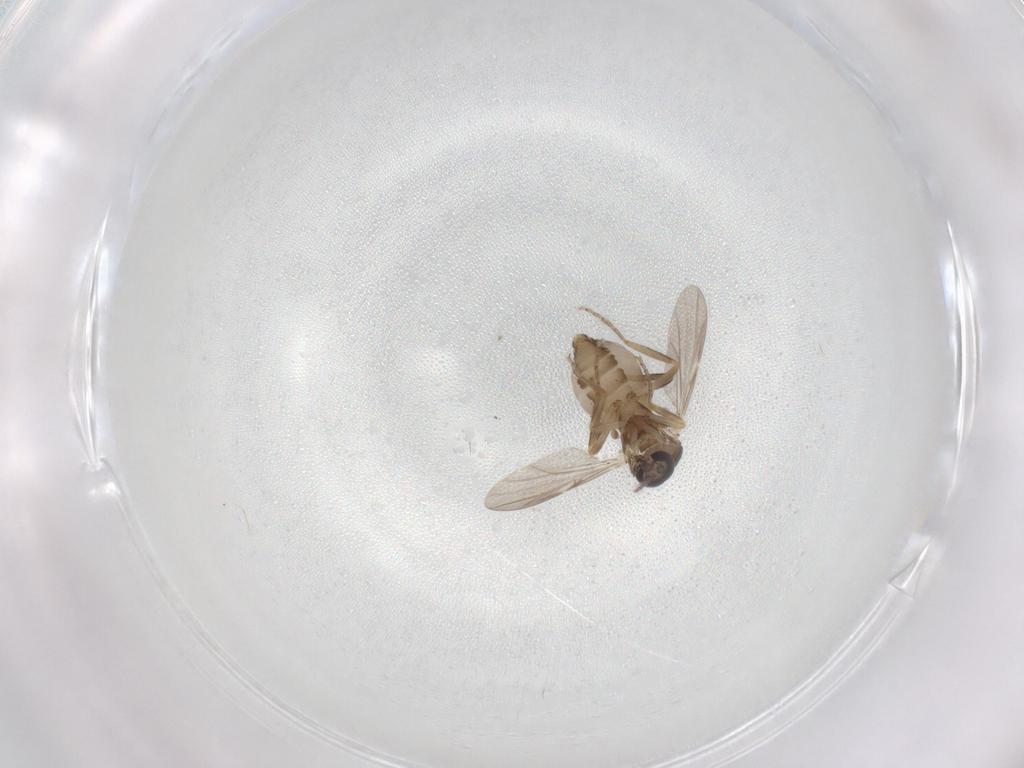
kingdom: Animalia
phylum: Arthropoda
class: Insecta
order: Diptera
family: Ceratopogonidae
